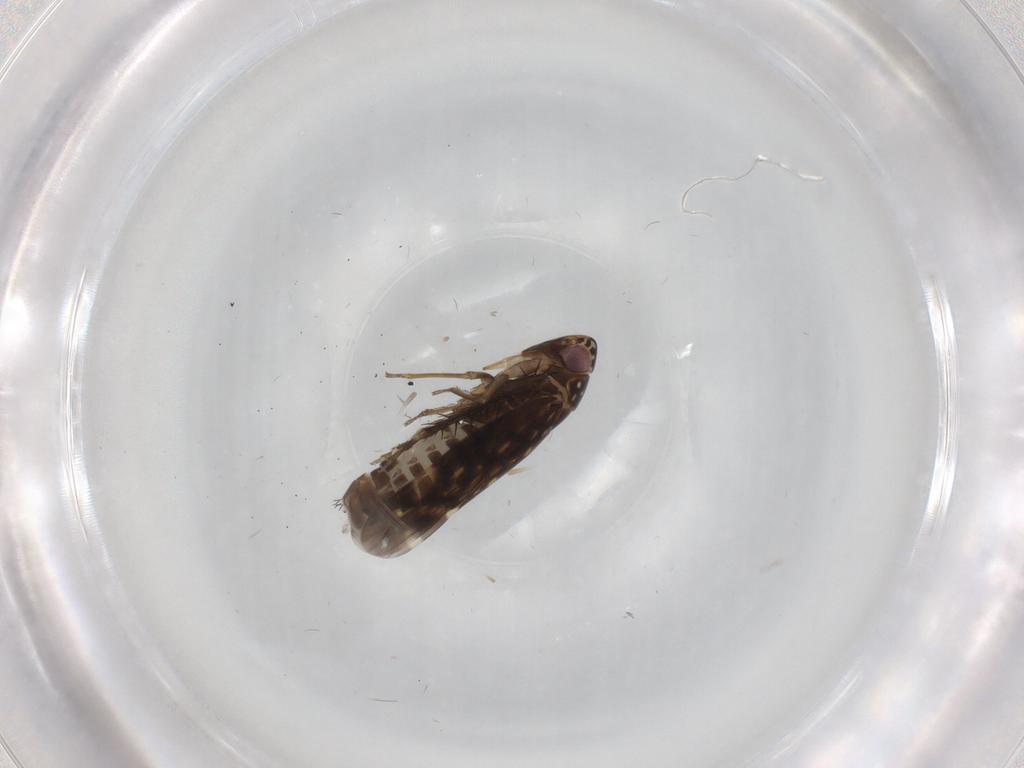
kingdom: Animalia
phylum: Arthropoda
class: Insecta
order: Hemiptera
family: Cicadellidae
